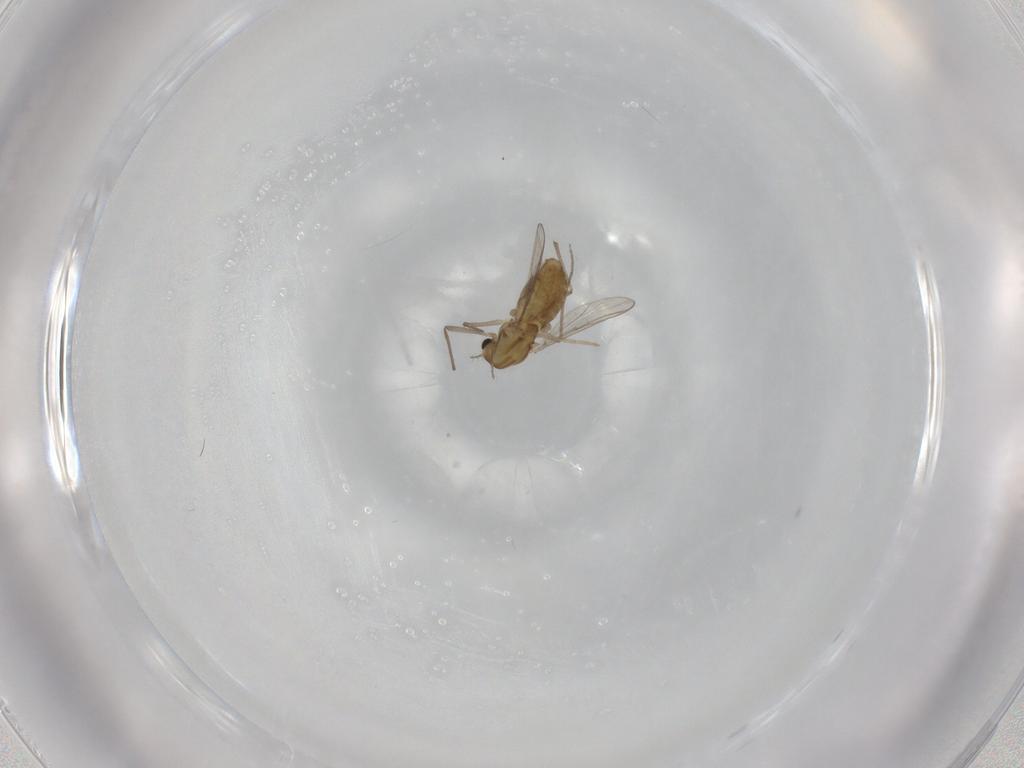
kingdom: Animalia
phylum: Arthropoda
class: Insecta
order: Diptera
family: Chironomidae
